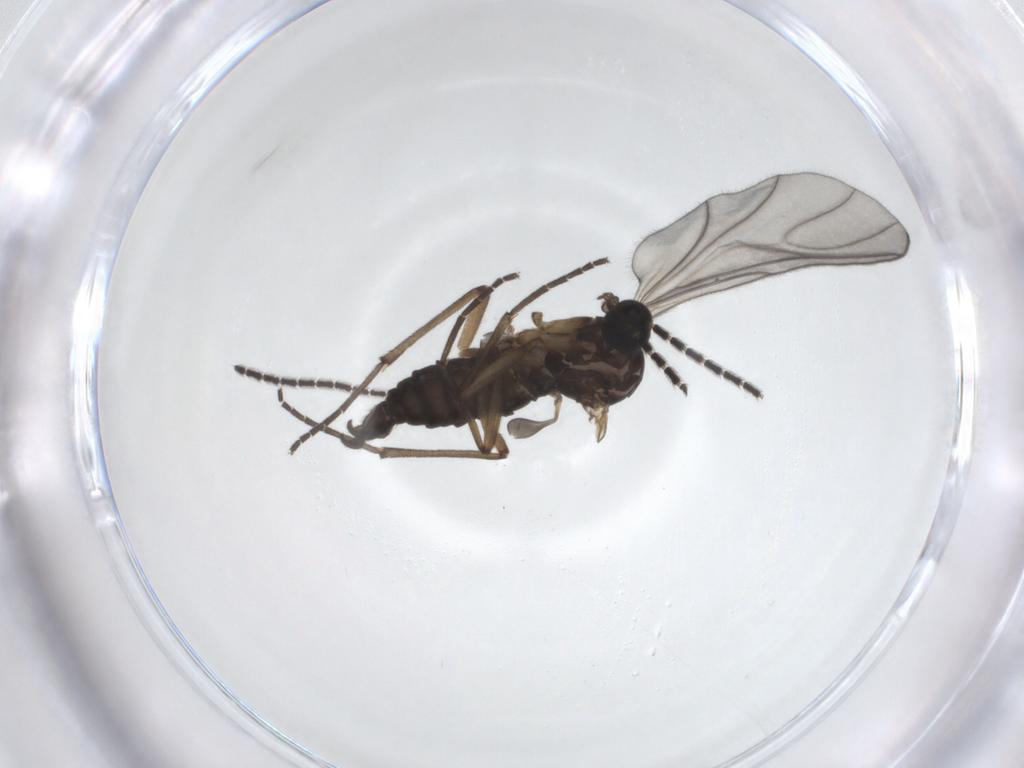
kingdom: Animalia
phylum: Arthropoda
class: Insecta
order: Diptera
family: Sciaridae
